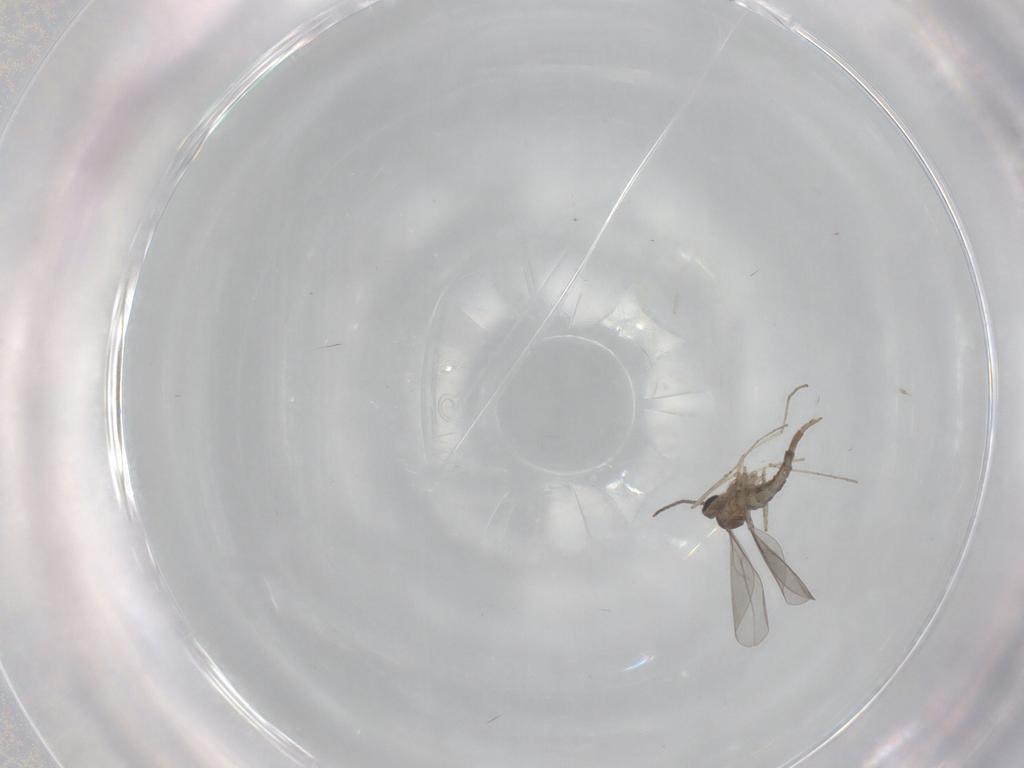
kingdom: Animalia
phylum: Arthropoda
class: Insecta
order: Diptera
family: Cecidomyiidae
